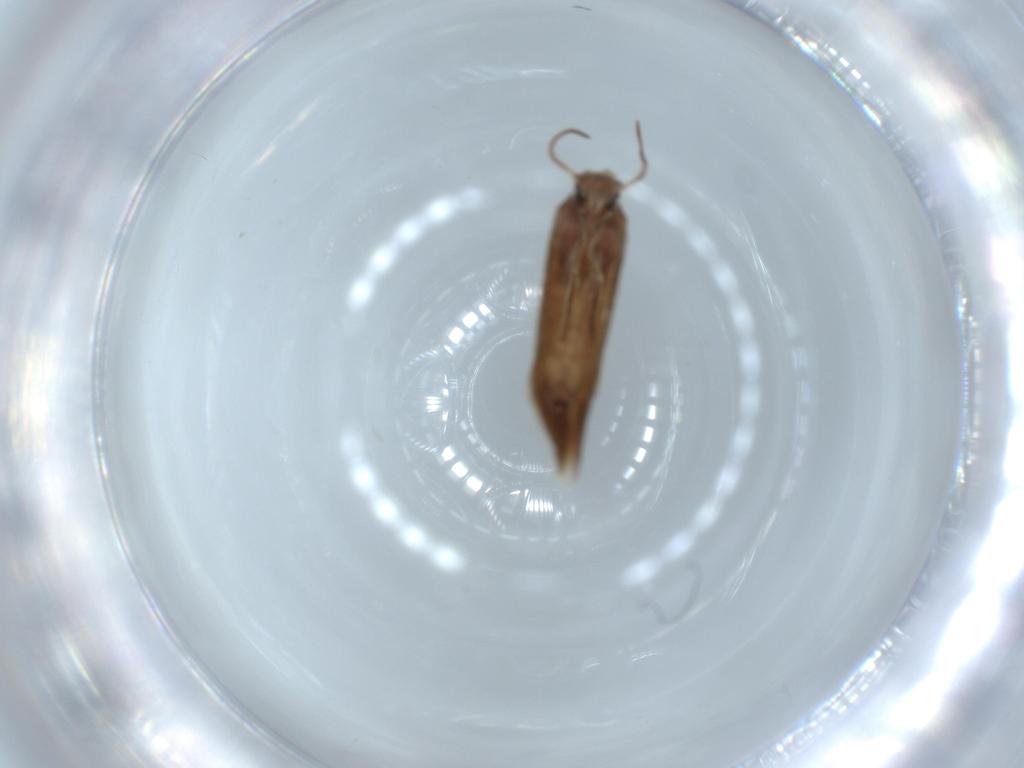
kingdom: Animalia
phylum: Arthropoda
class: Insecta
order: Lepidoptera
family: Heliozelidae
